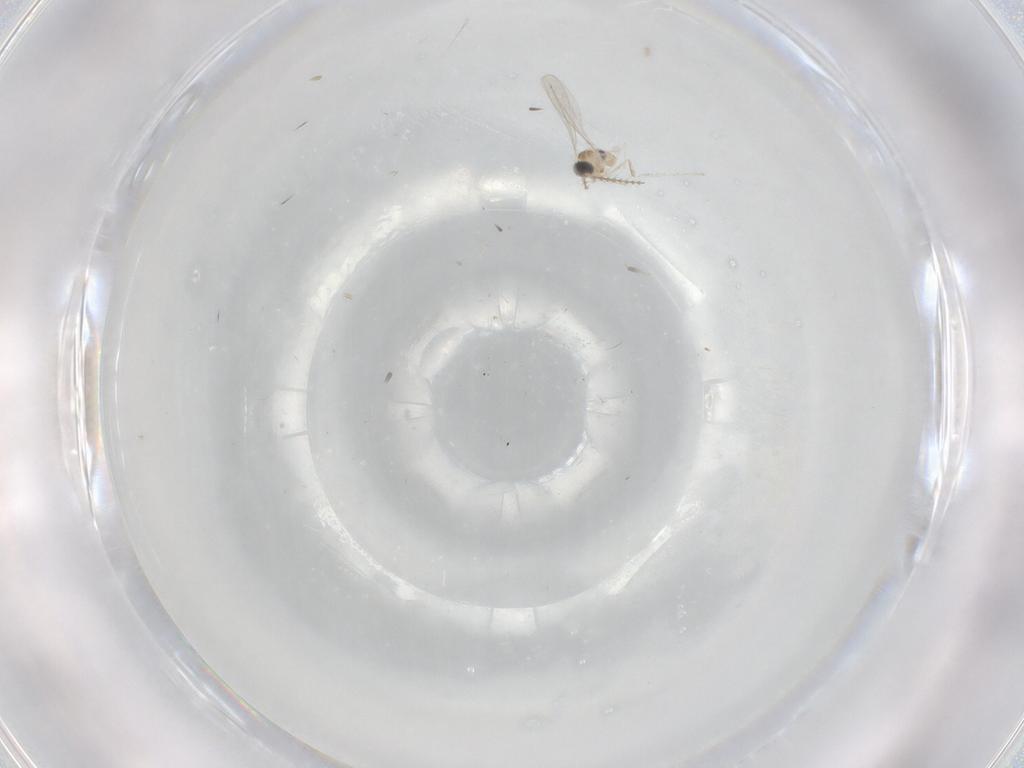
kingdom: Animalia
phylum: Arthropoda
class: Insecta
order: Diptera
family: Cecidomyiidae
